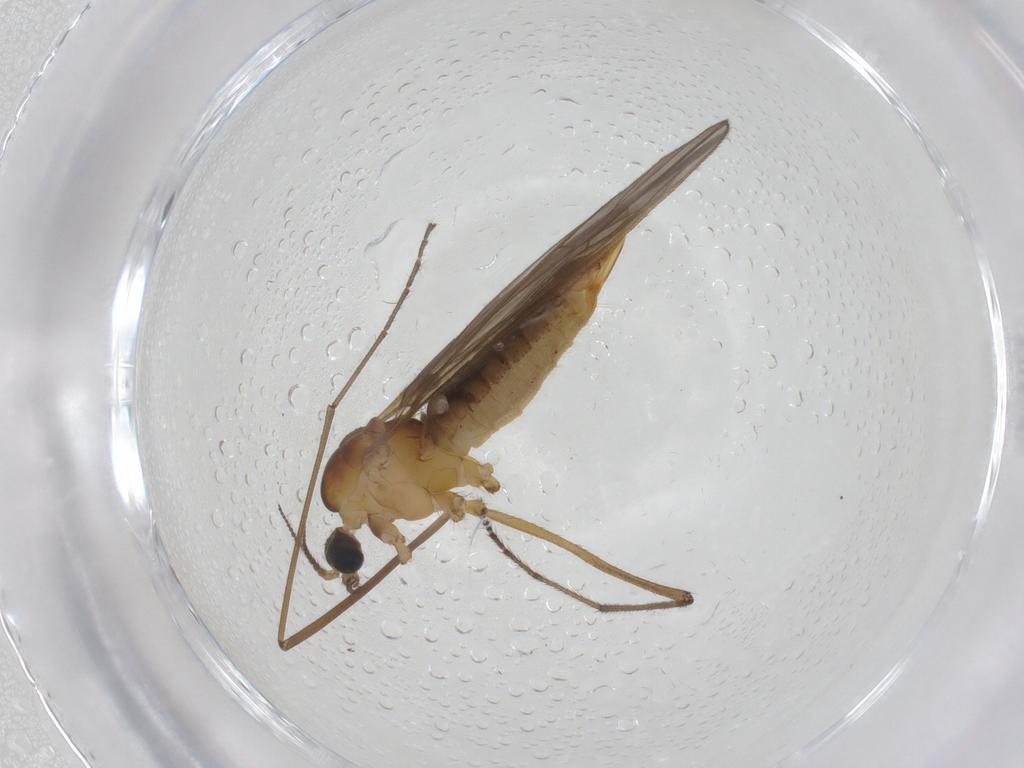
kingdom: Animalia
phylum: Arthropoda
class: Insecta
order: Diptera
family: Limoniidae
